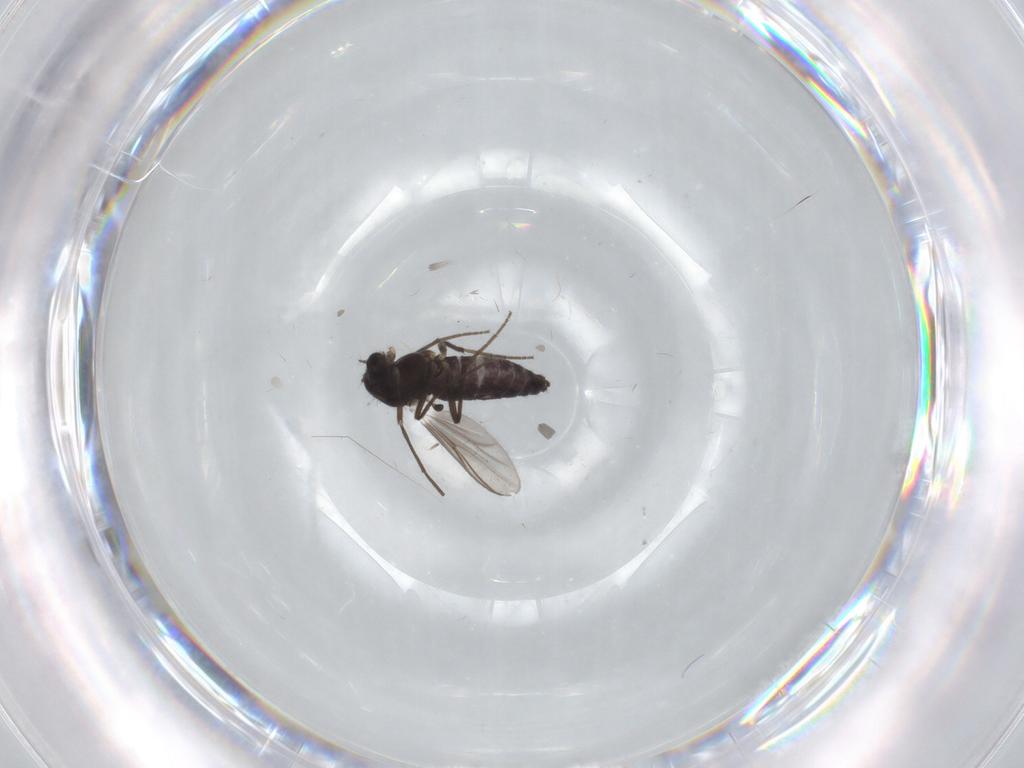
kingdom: Animalia
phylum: Arthropoda
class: Insecta
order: Diptera
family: Chironomidae
